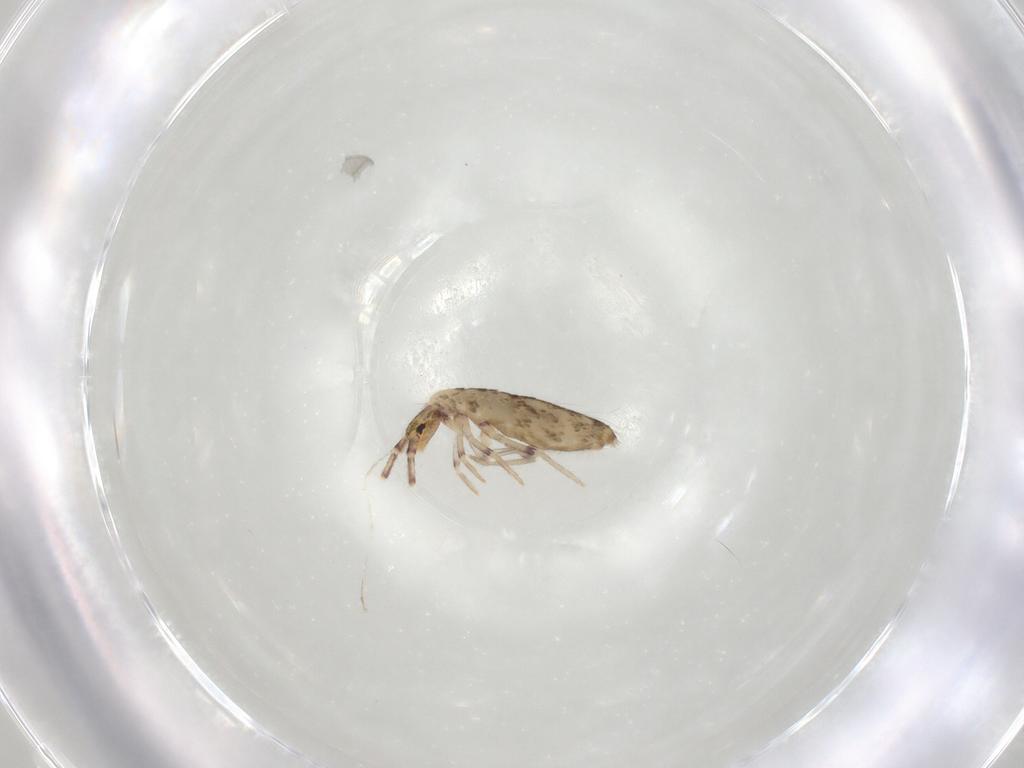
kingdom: Animalia
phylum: Arthropoda
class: Collembola
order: Entomobryomorpha
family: Entomobryidae
